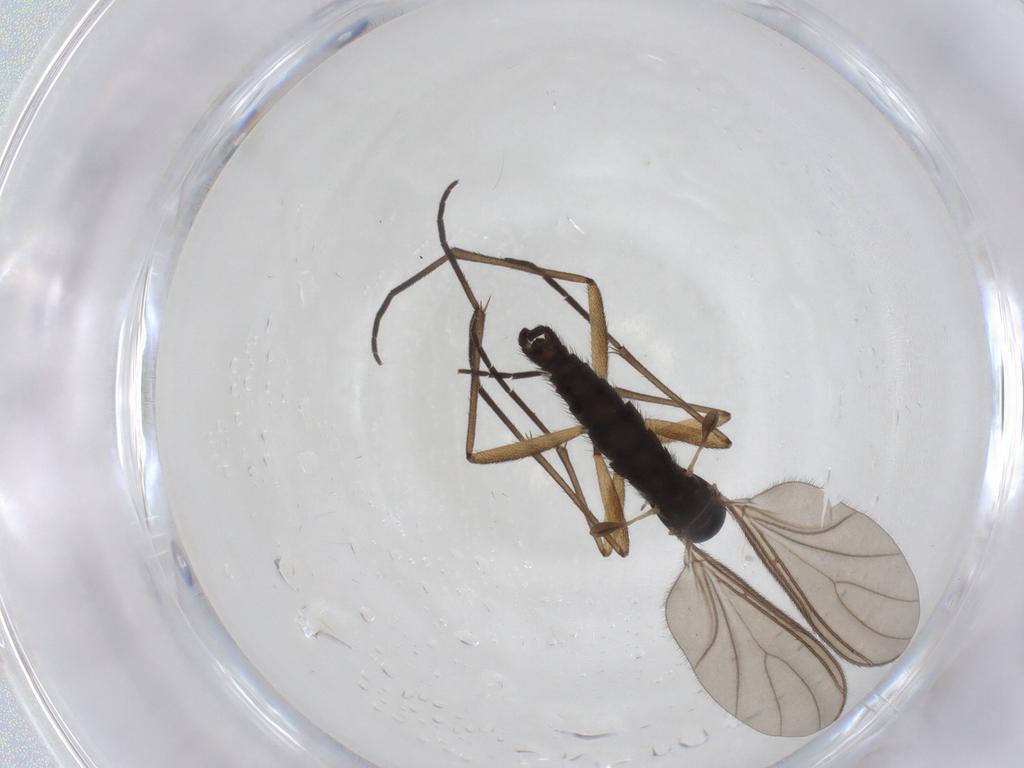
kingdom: Animalia
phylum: Arthropoda
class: Insecta
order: Diptera
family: Sciaridae
